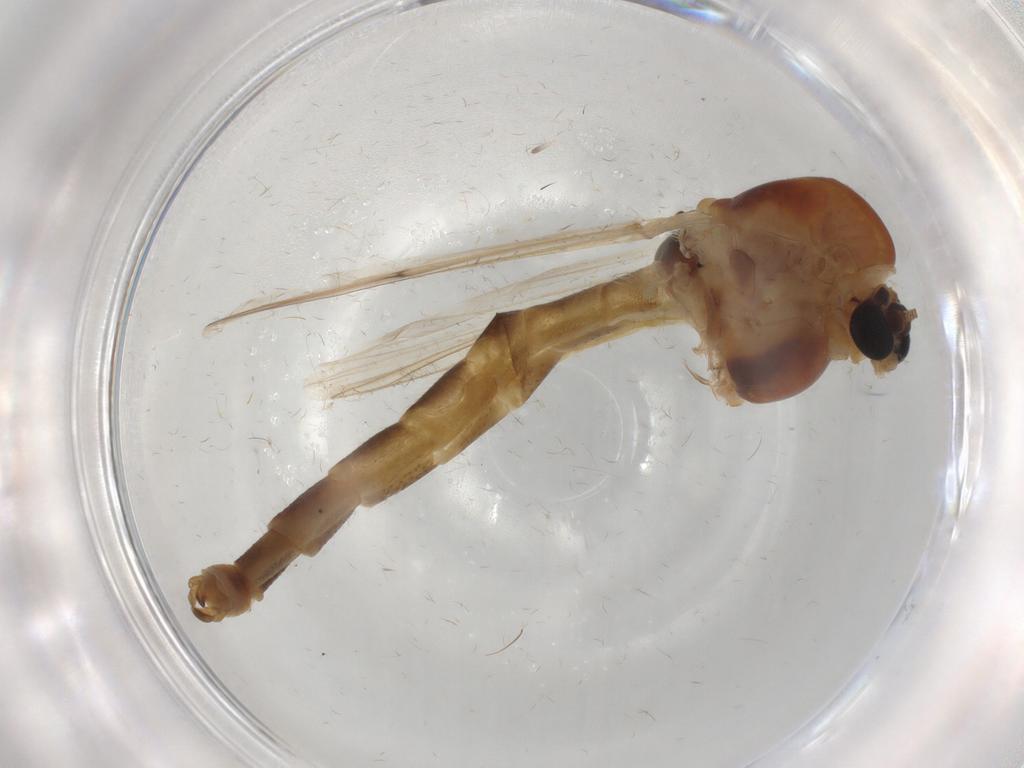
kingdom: Animalia
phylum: Arthropoda
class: Insecta
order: Diptera
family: Chironomidae
